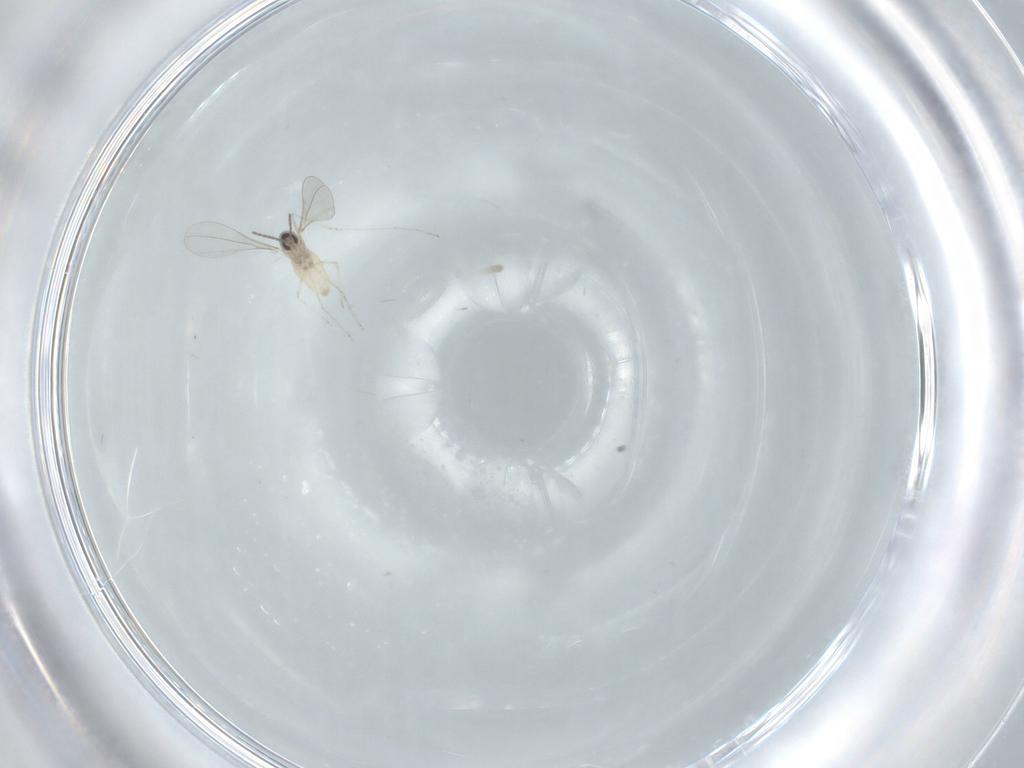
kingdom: Animalia
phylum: Arthropoda
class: Insecta
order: Diptera
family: Cecidomyiidae
